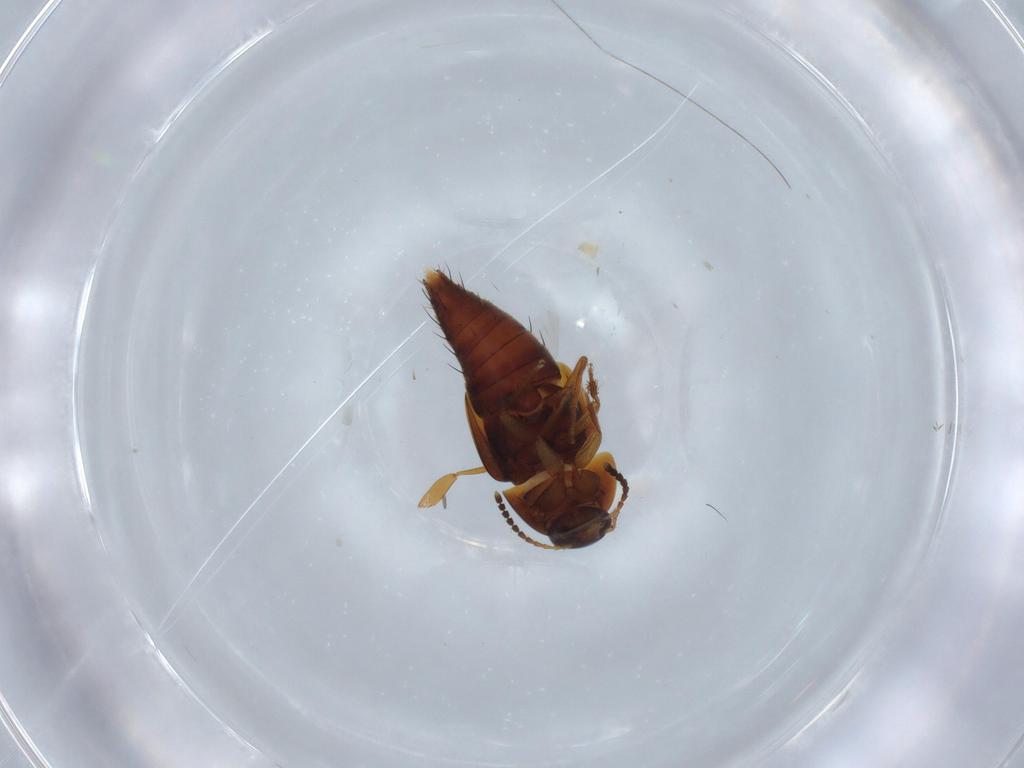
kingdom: Animalia
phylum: Arthropoda
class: Insecta
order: Coleoptera
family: Staphylinidae
